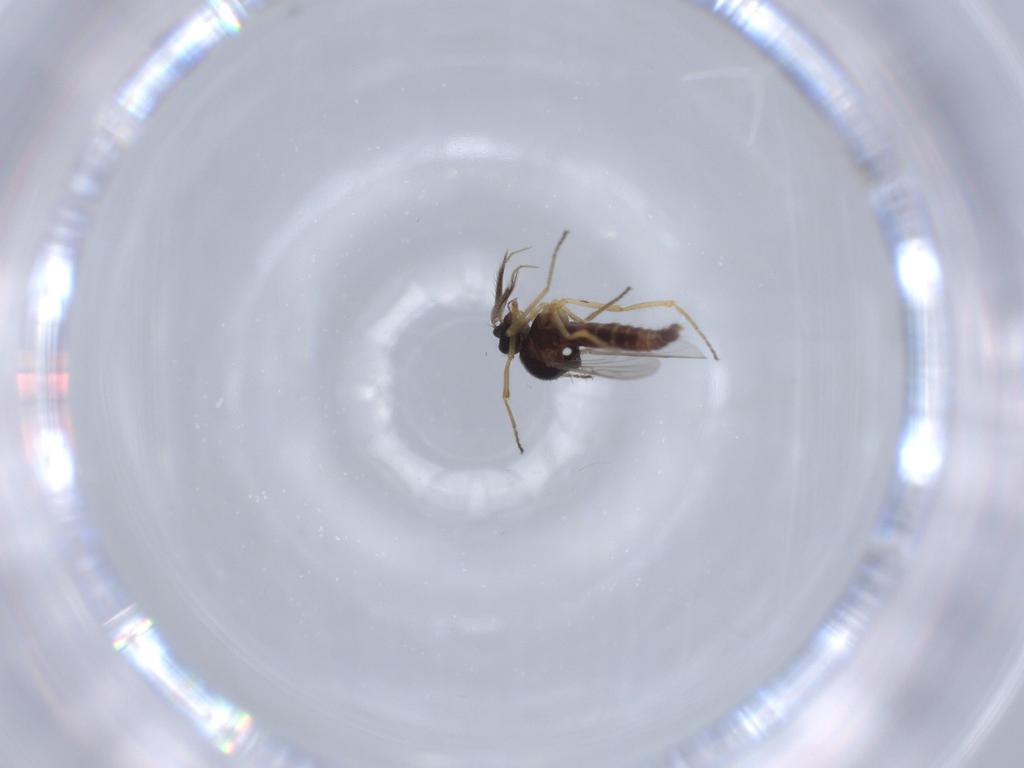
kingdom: Animalia
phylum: Arthropoda
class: Insecta
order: Diptera
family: Ceratopogonidae
